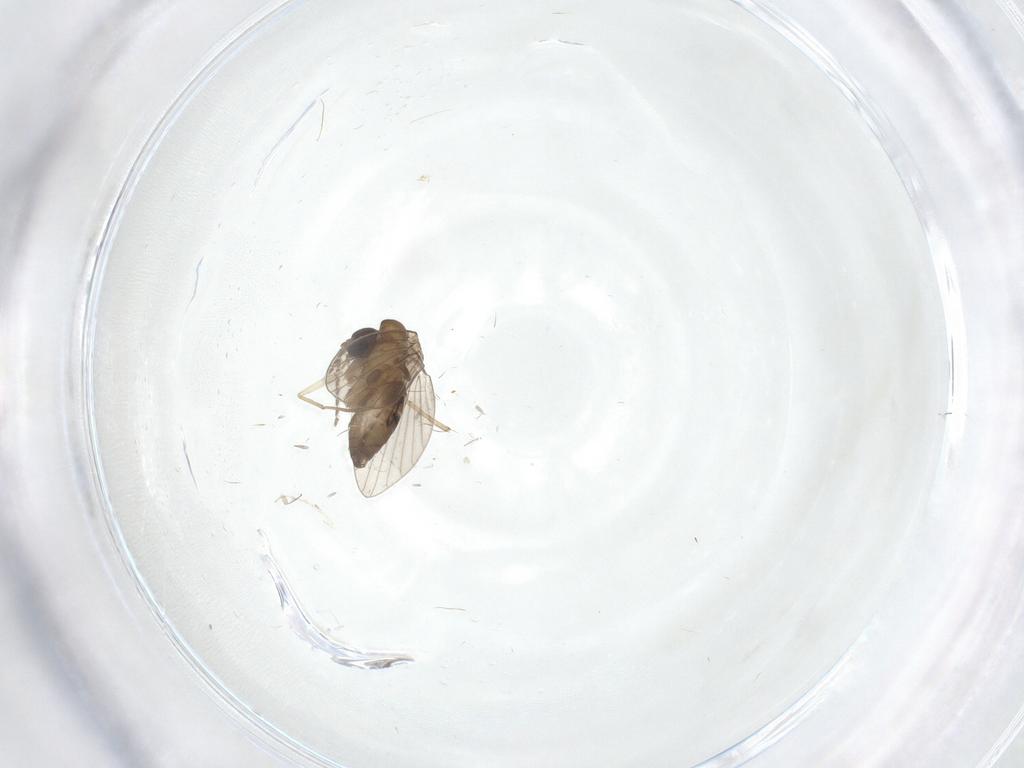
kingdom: Animalia
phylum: Arthropoda
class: Insecta
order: Diptera
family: Cecidomyiidae
